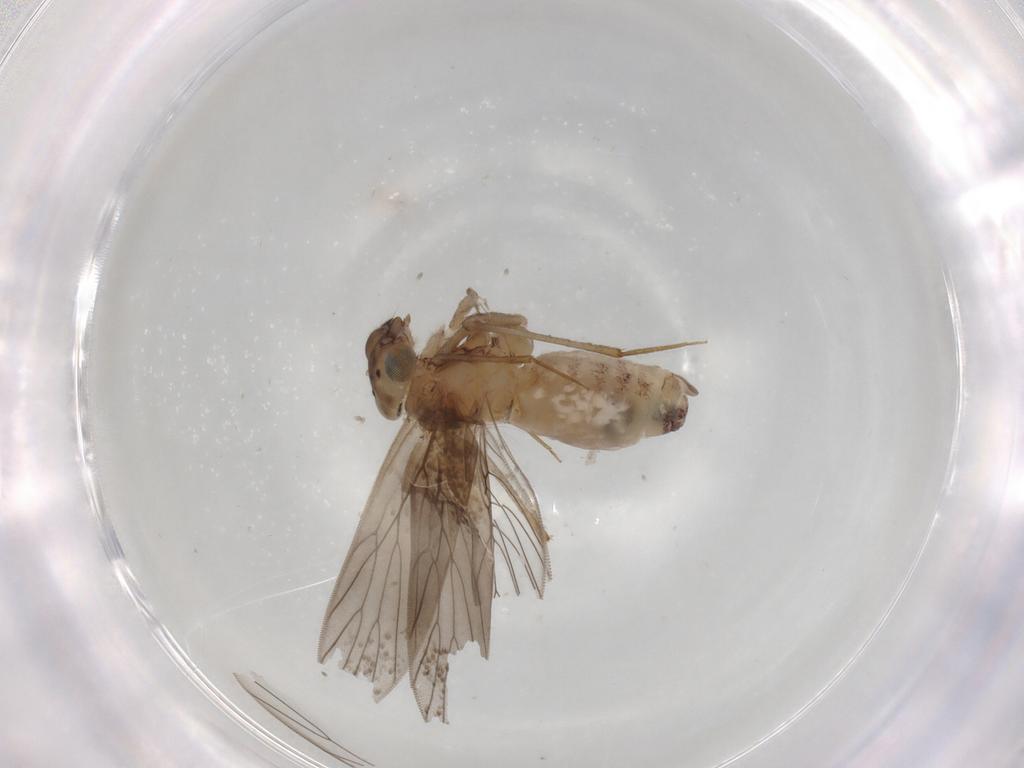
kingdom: Animalia
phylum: Arthropoda
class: Insecta
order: Psocodea
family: Lepidopsocidae
